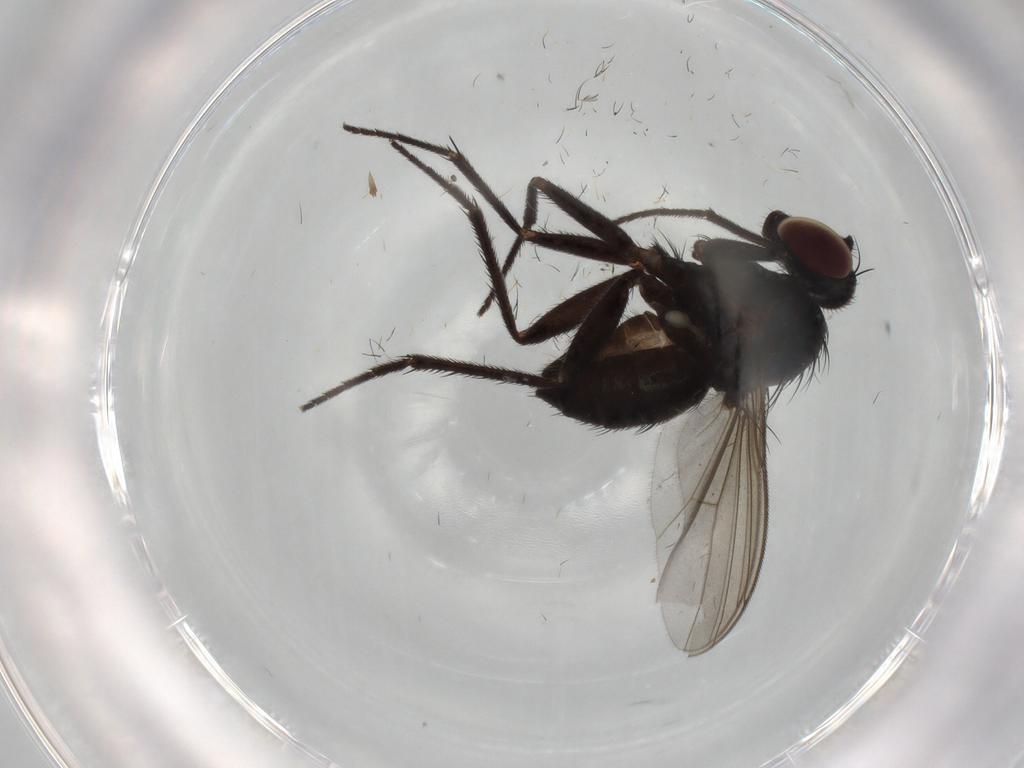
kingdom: Animalia
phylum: Arthropoda
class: Insecta
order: Diptera
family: Dolichopodidae
